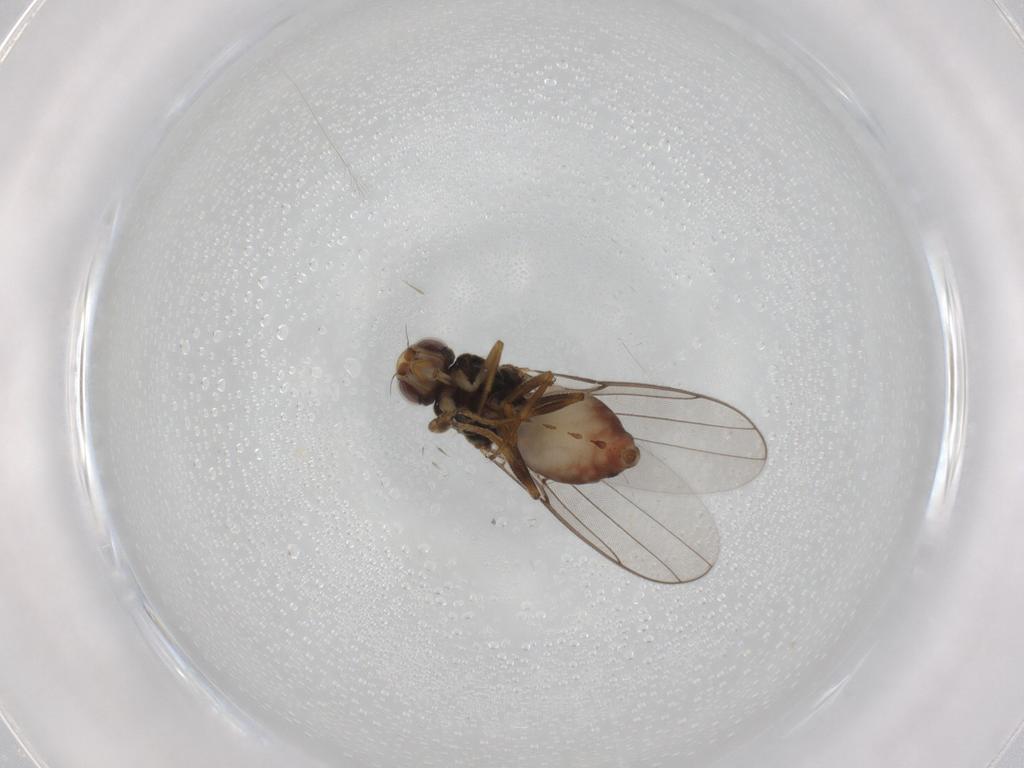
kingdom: Animalia
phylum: Arthropoda
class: Insecta
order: Diptera
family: Chloropidae
